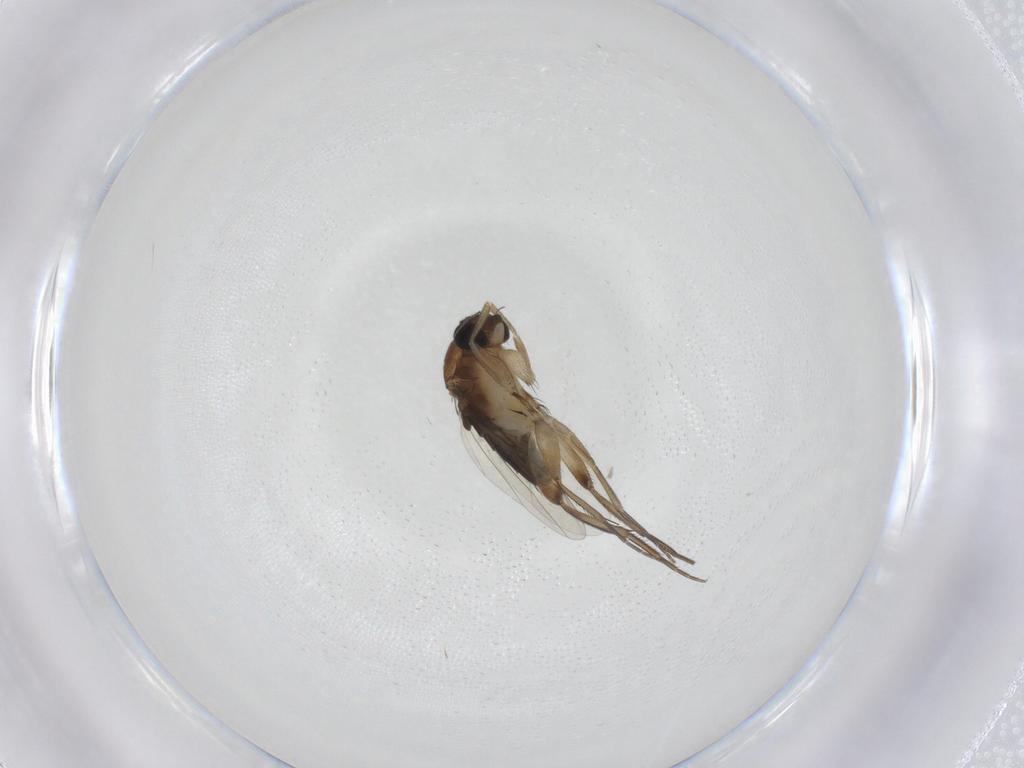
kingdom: Animalia
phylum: Arthropoda
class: Insecta
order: Diptera
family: Phoridae
